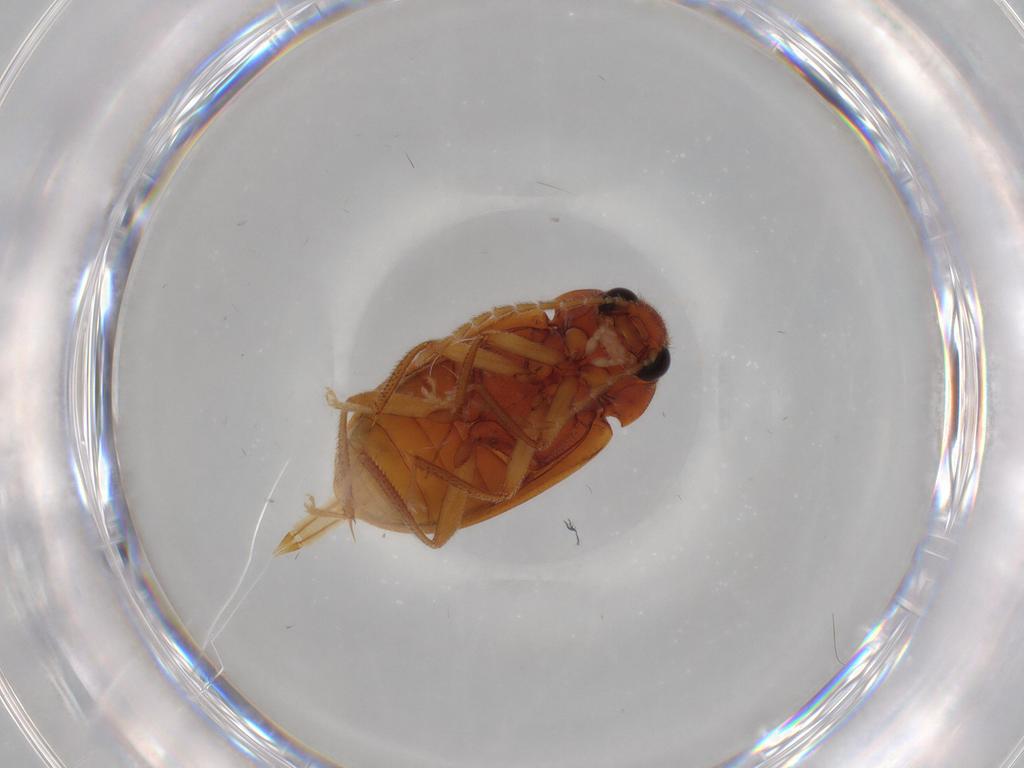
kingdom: Animalia
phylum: Arthropoda
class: Insecta
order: Coleoptera
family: Ptilodactylidae
